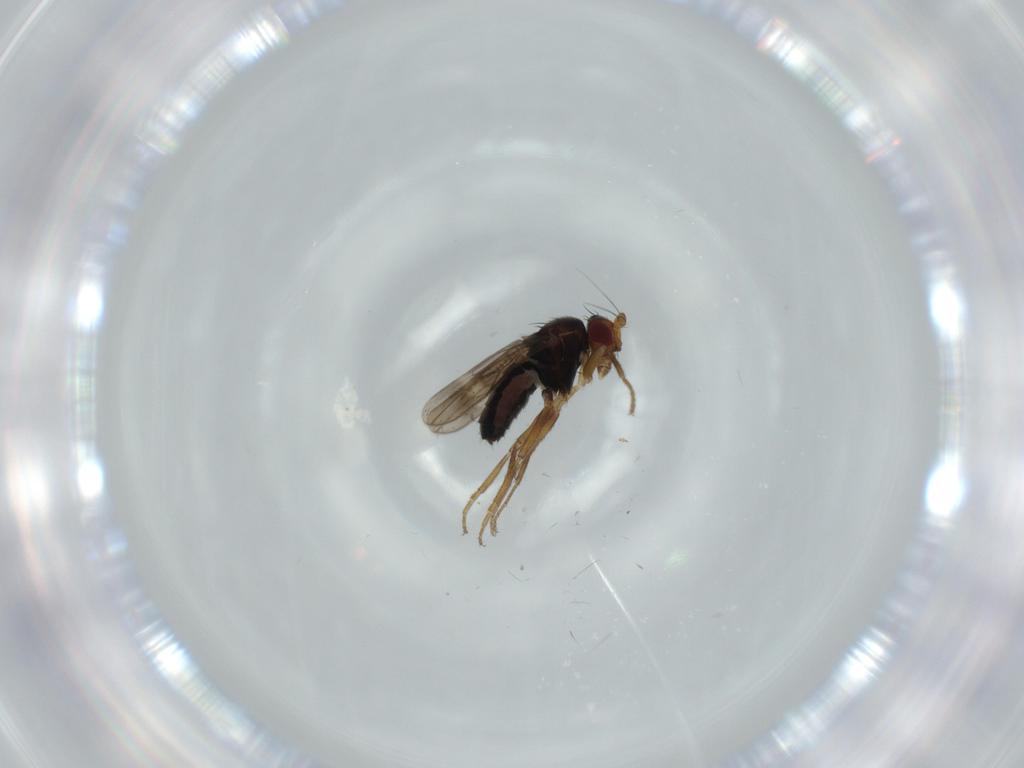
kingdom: Animalia
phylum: Arthropoda
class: Insecta
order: Diptera
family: Sphaeroceridae
